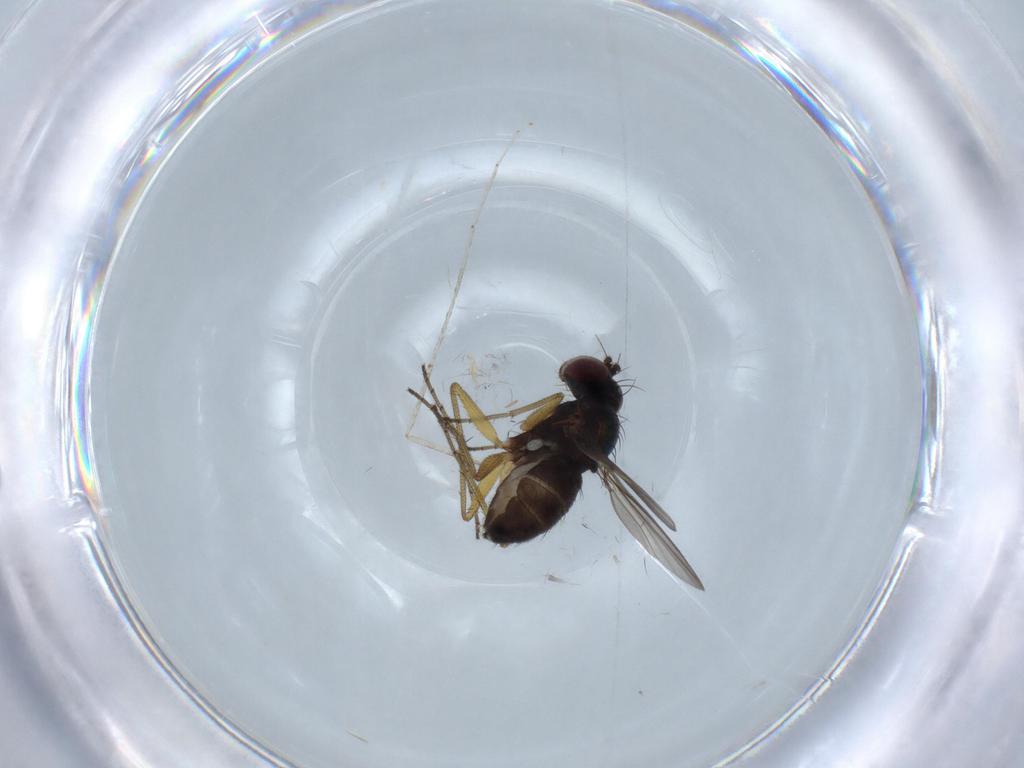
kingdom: Animalia
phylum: Arthropoda
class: Insecta
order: Diptera
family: Dolichopodidae
